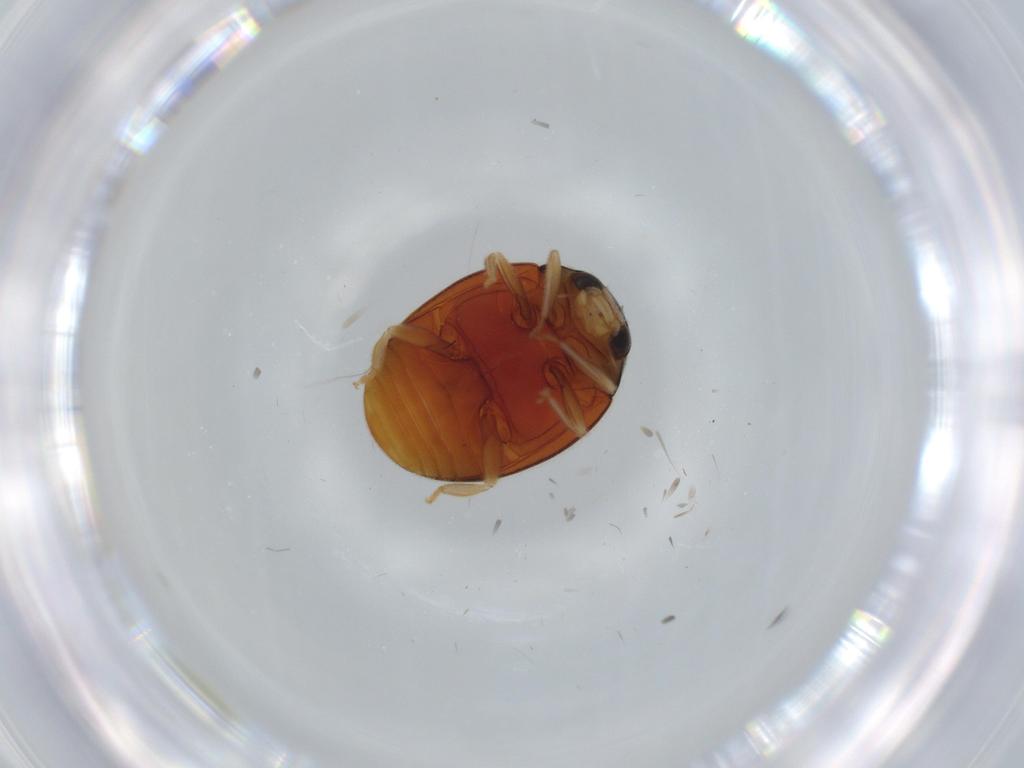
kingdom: Animalia
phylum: Arthropoda
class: Insecta
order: Coleoptera
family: Coccinellidae
